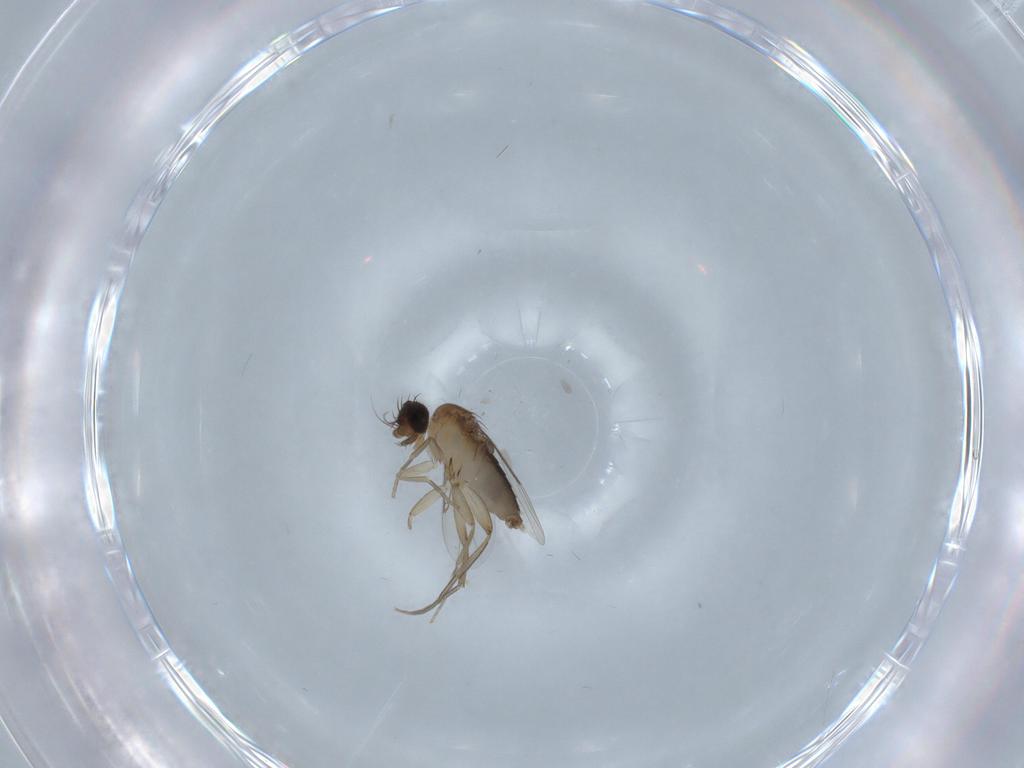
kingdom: Animalia
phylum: Arthropoda
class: Insecta
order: Diptera
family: Phoridae
